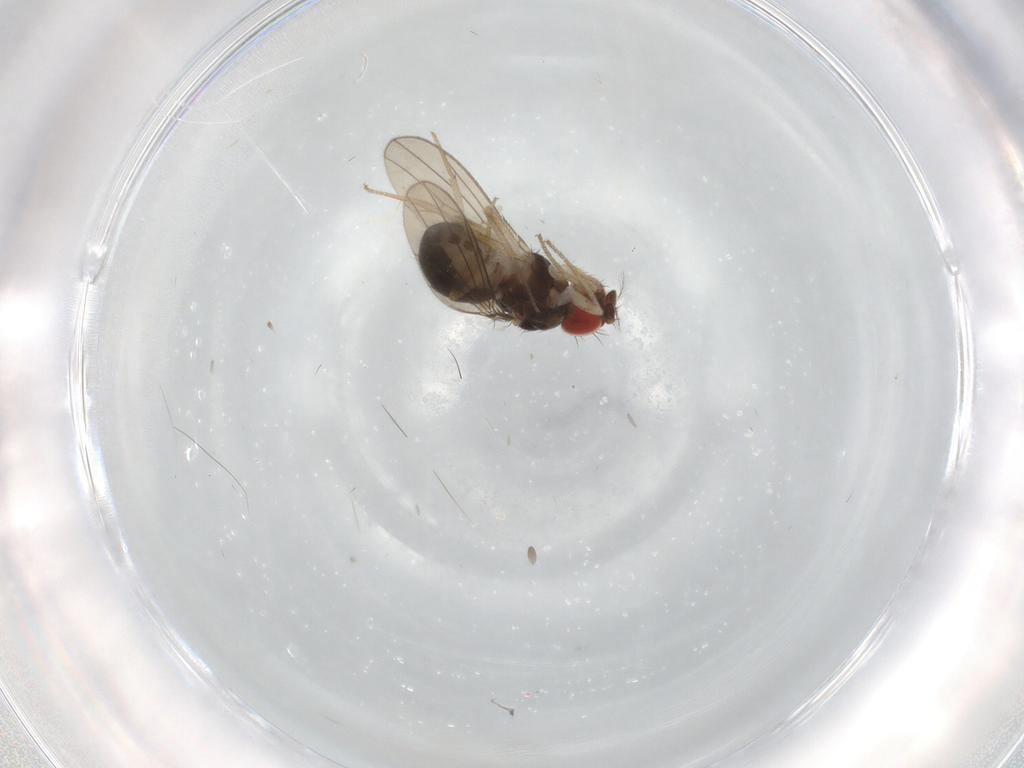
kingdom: Animalia
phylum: Arthropoda
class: Insecta
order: Diptera
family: Drosophilidae
